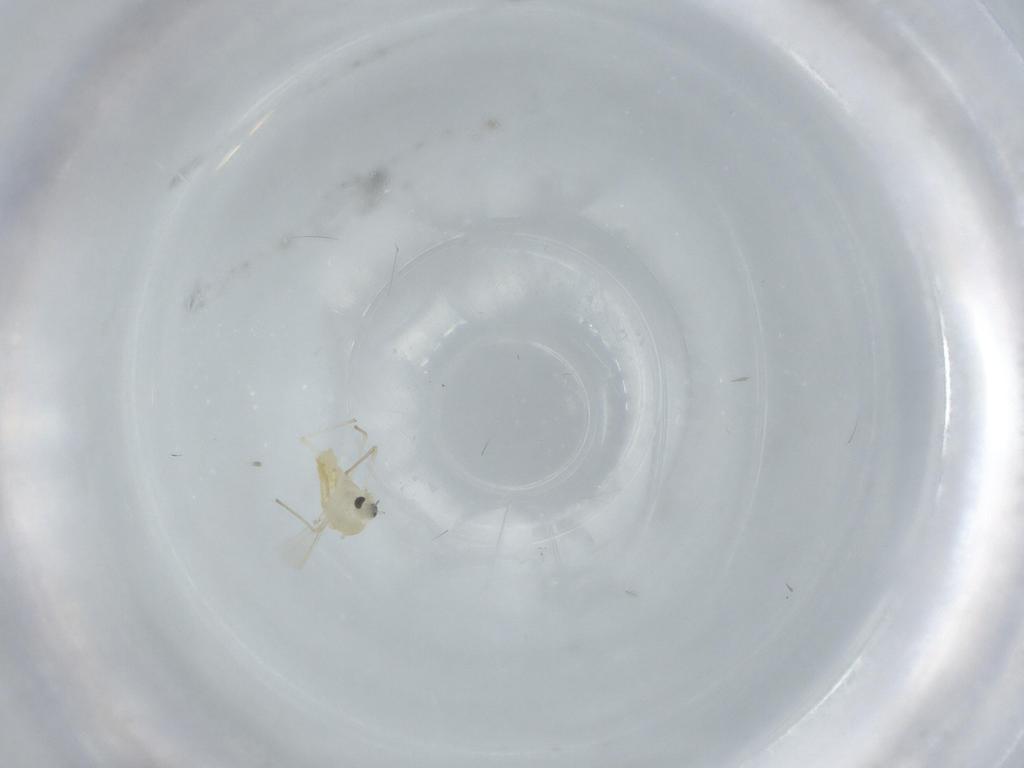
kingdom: Animalia
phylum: Arthropoda
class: Insecta
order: Diptera
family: Chironomidae
